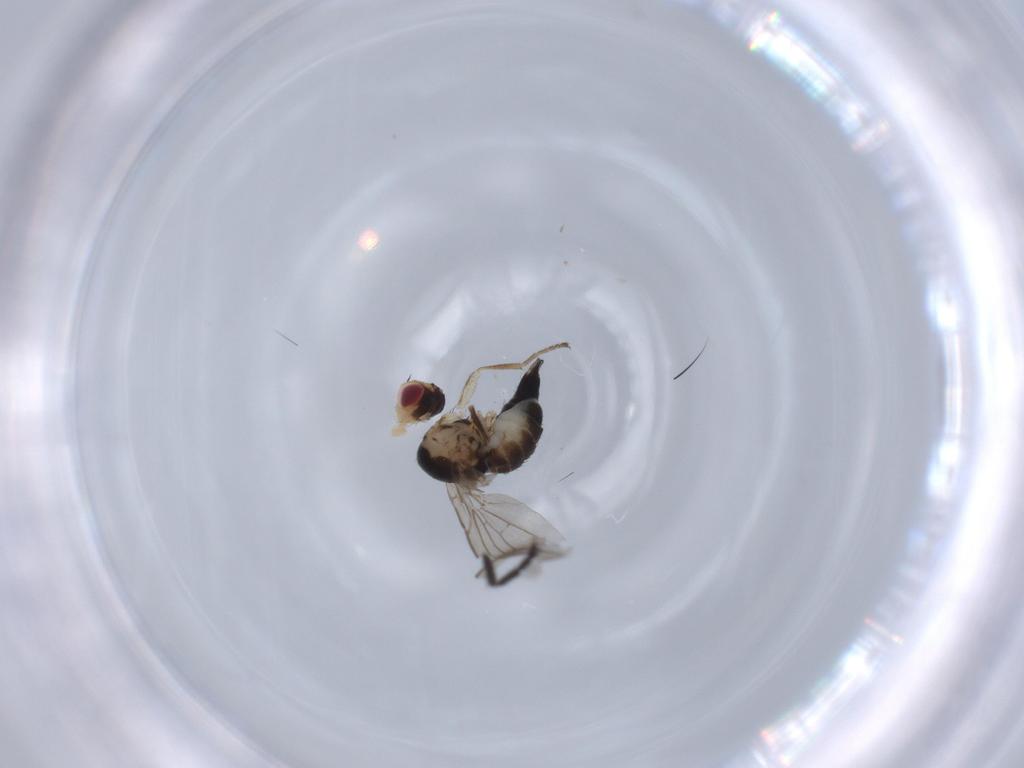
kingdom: Animalia
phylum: Arthropoda
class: Insecta
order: Diptera
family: Empididae
